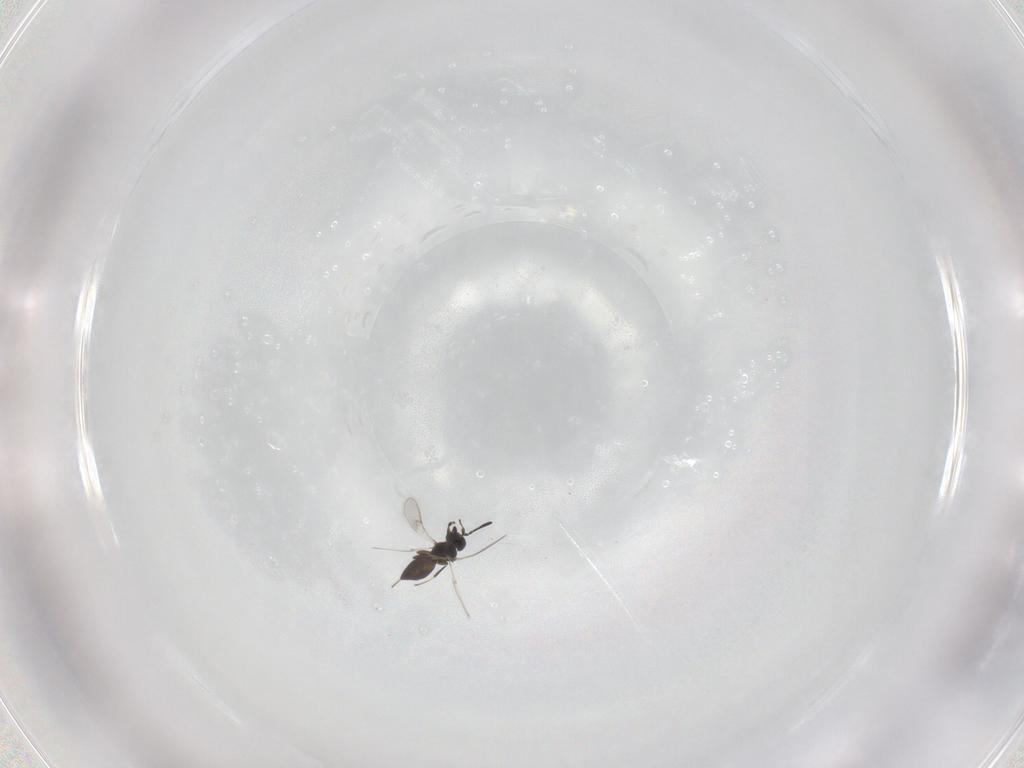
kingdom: Animalia
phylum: Arthropoda
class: Insecta
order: Hymenoptera
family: Scelionidae
